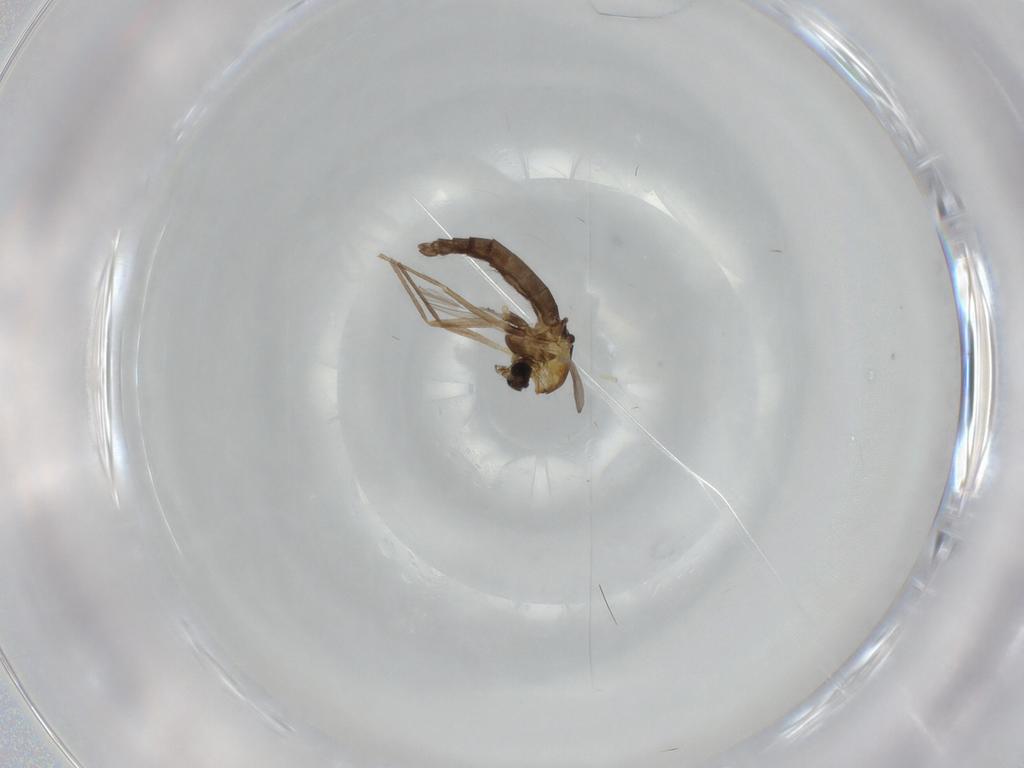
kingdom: Animalia
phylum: Arthropoda
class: Insecta
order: Diptera
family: Chironomidae
